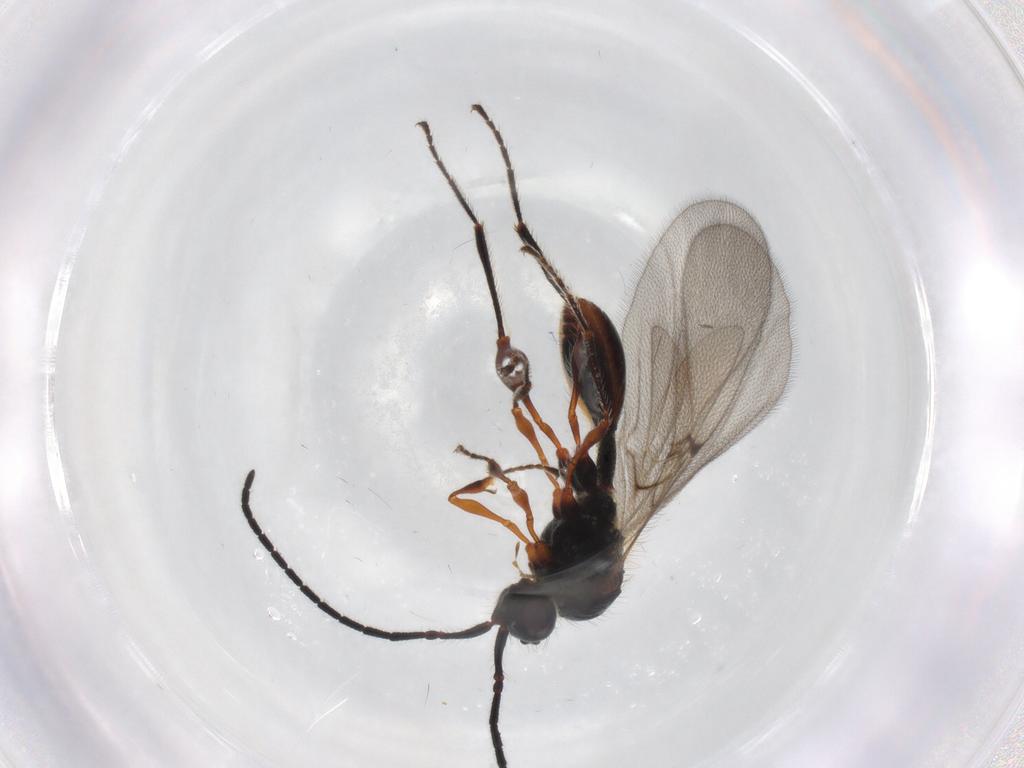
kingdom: Animalia
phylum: Arthropoda
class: Insecta
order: Hymenoptera
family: Diapriidae
